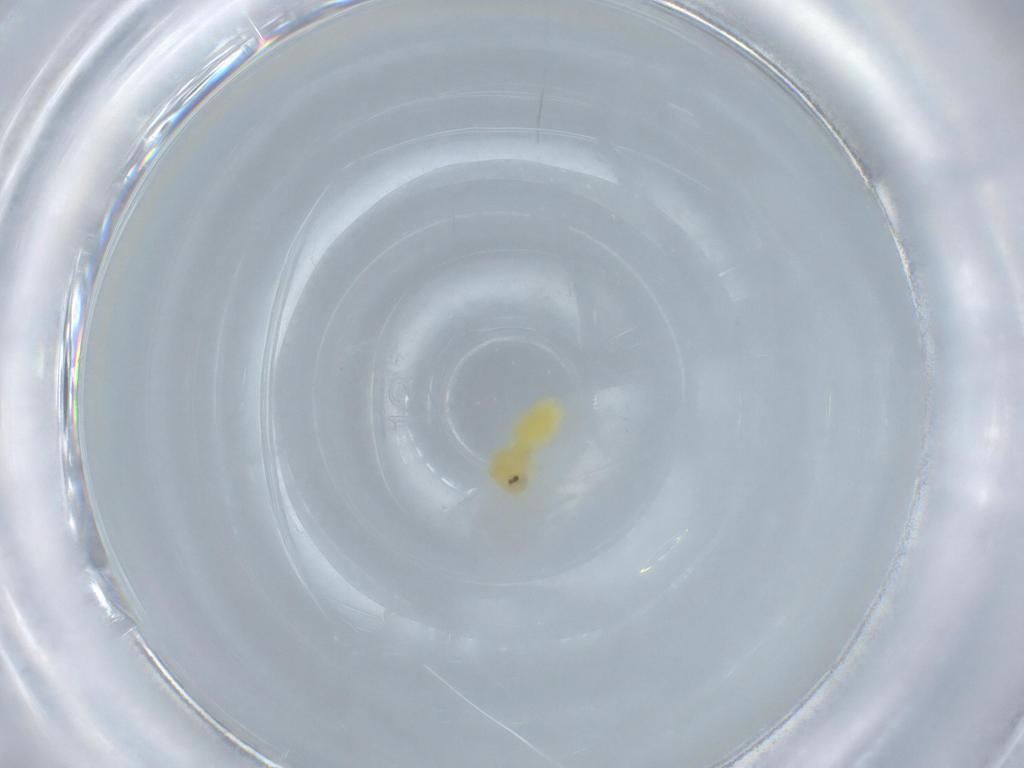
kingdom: Animalia
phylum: Arthropoda
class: Insecta
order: Hemiptera
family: Aleyrodidae
